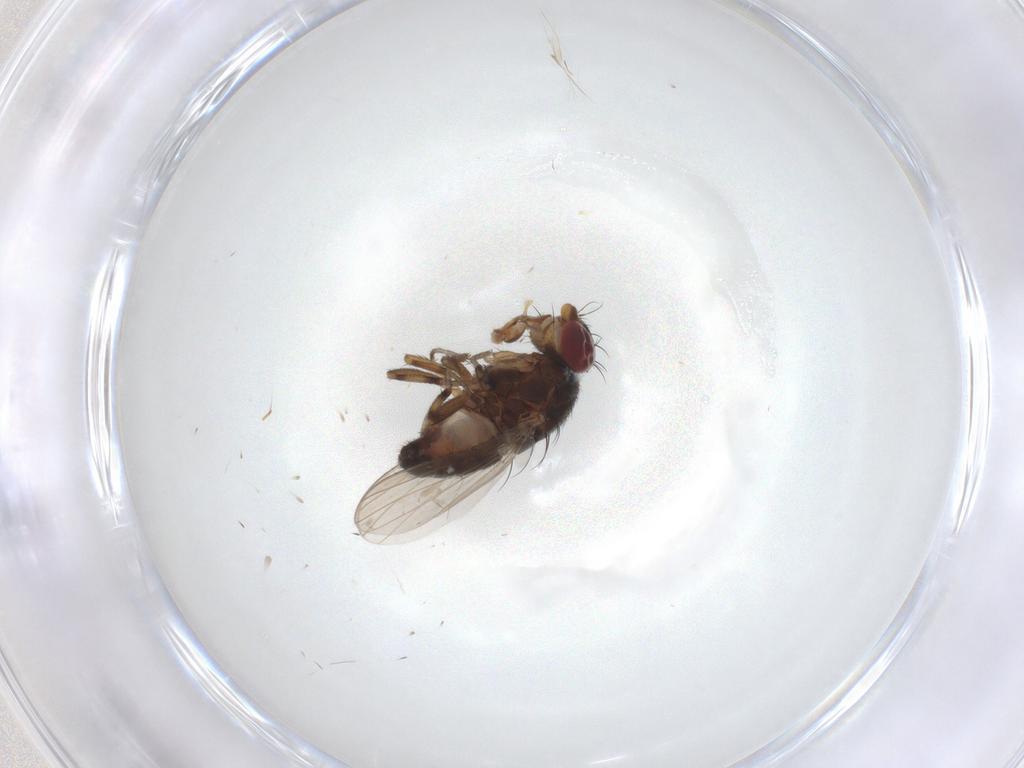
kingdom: Animalia
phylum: Arthropoda
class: Insecta
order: Diptera
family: Heleomyzidae
